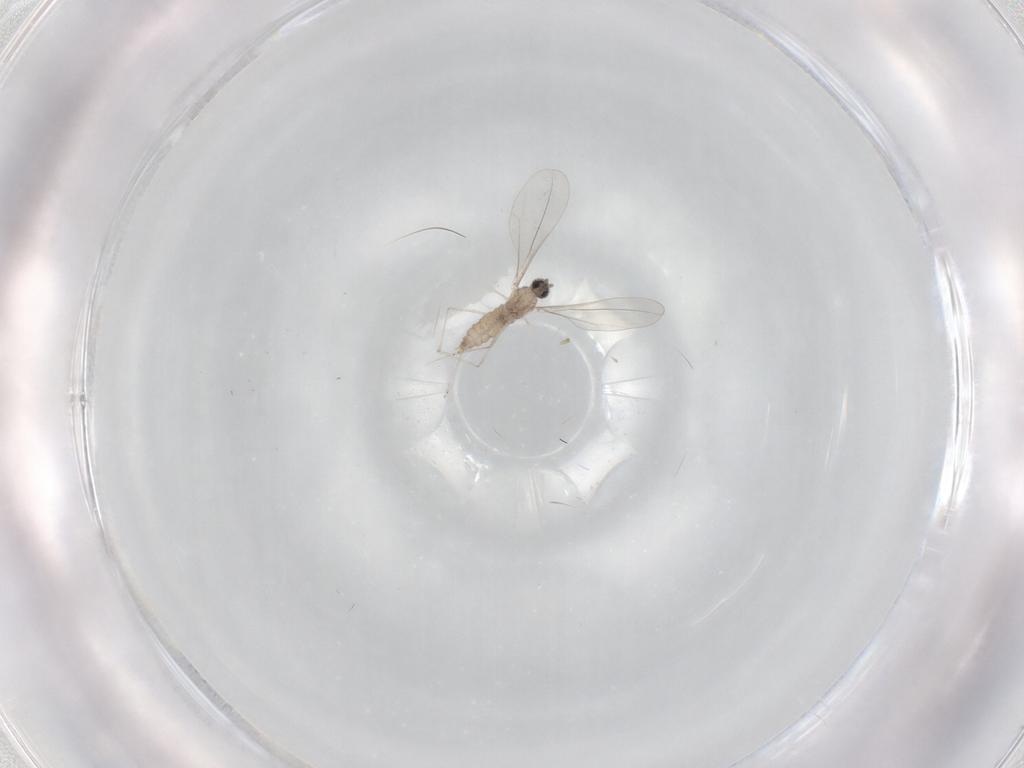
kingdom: Animalia
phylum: Arthropoda
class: Insecta
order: Diptera
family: Cecidomyiidae
